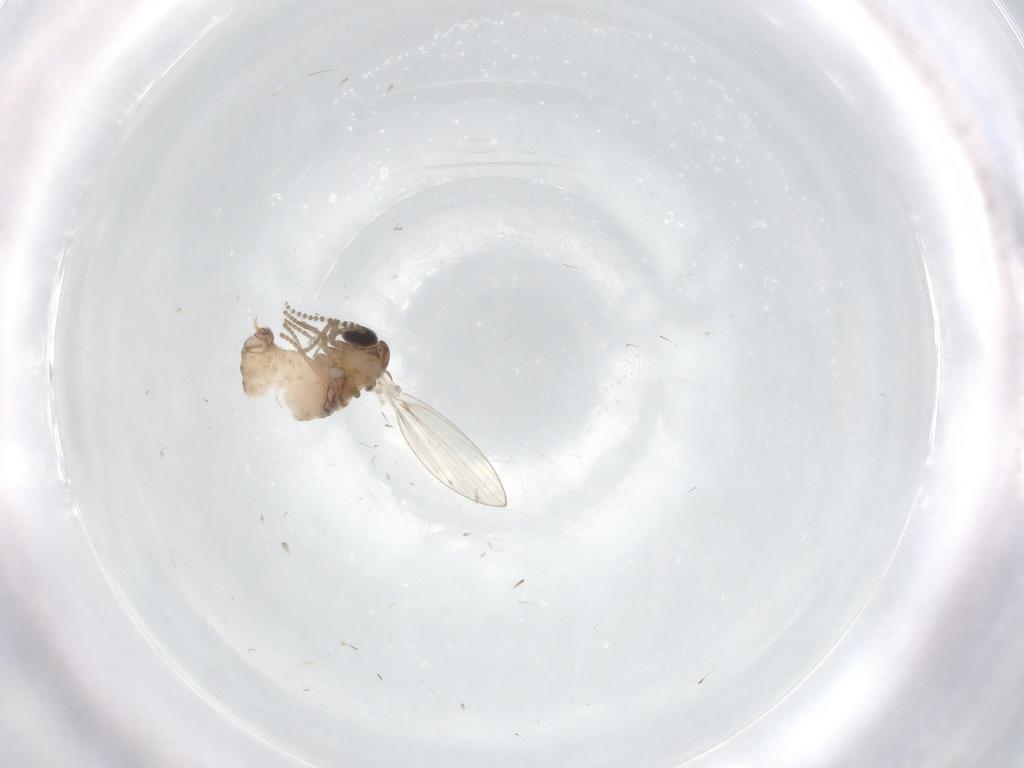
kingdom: Animalia
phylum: Arthropoda
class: Insecta
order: Diptera
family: Psychodidae
